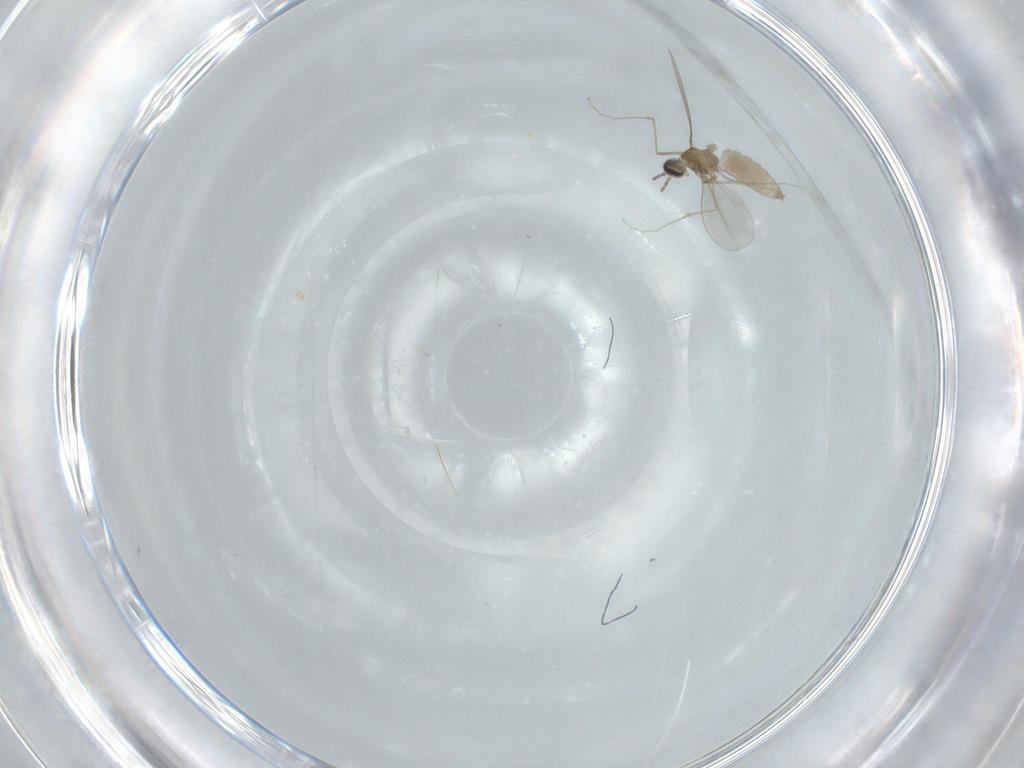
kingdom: Animalia
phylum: Arthropoda
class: Insecta
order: Diptera
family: Cecidomyiidae
